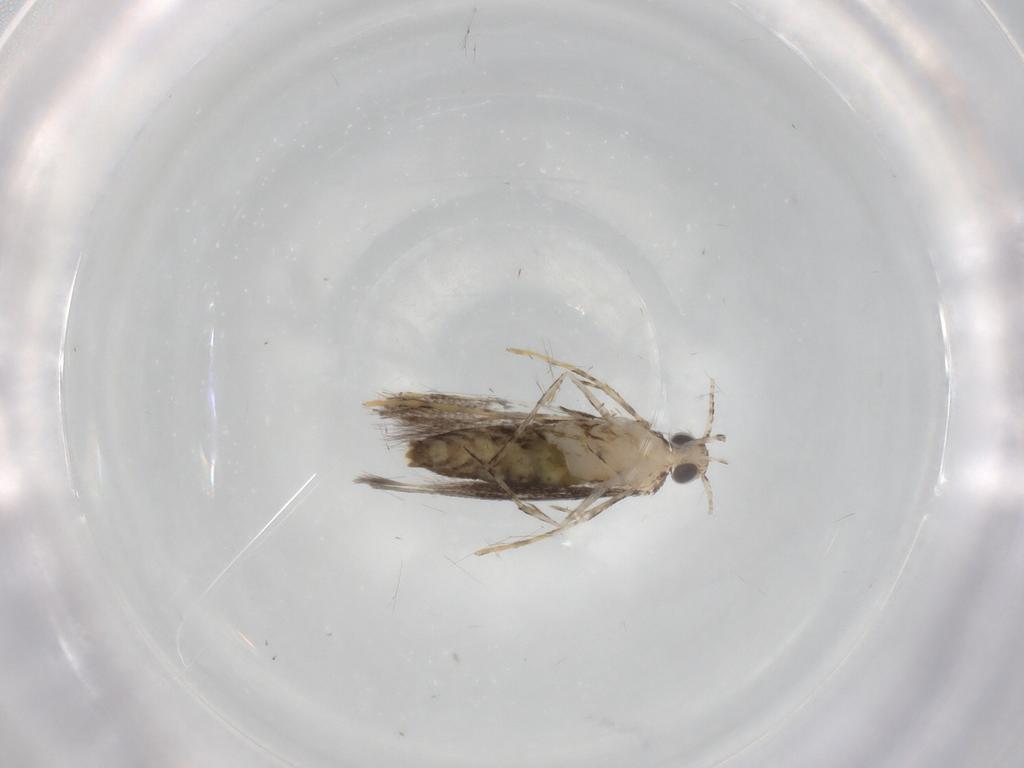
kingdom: Animalia
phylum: Arthropoda
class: Insecta
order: Lepidoptera
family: Gracillariidae
